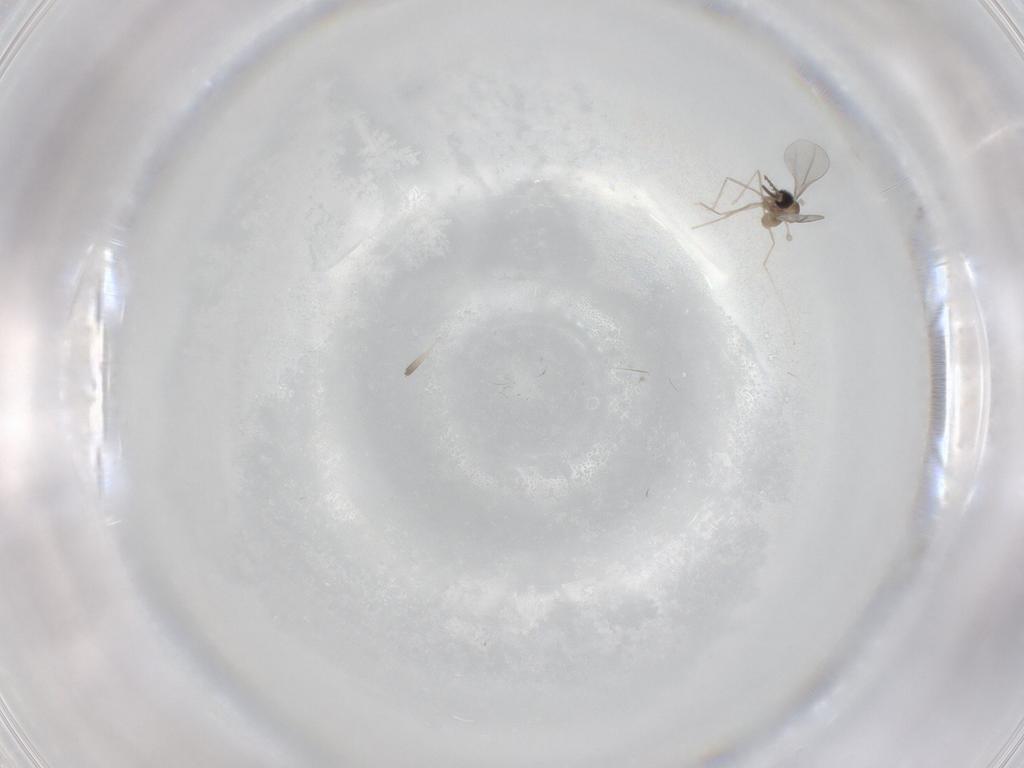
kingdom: Animalia
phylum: Arthropoda
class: Insecta
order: Diptera
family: Cecidomyiidae
